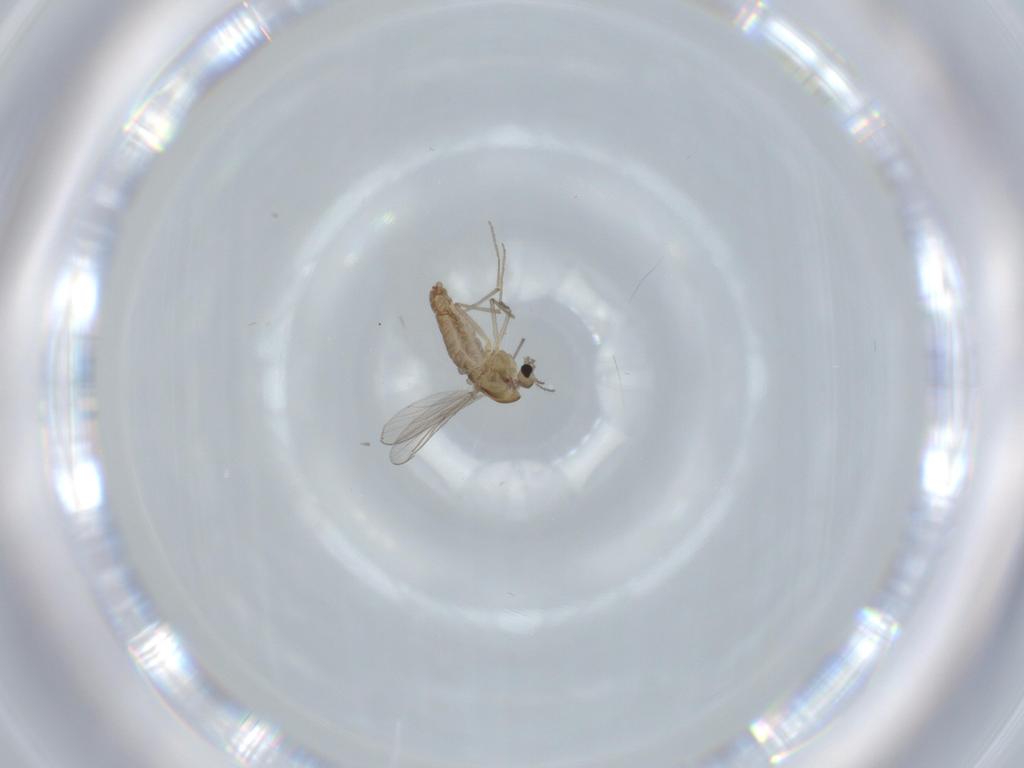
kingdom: Animalia
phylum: Arthropoda
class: Insecta
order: Diptera
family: Chironomidae
